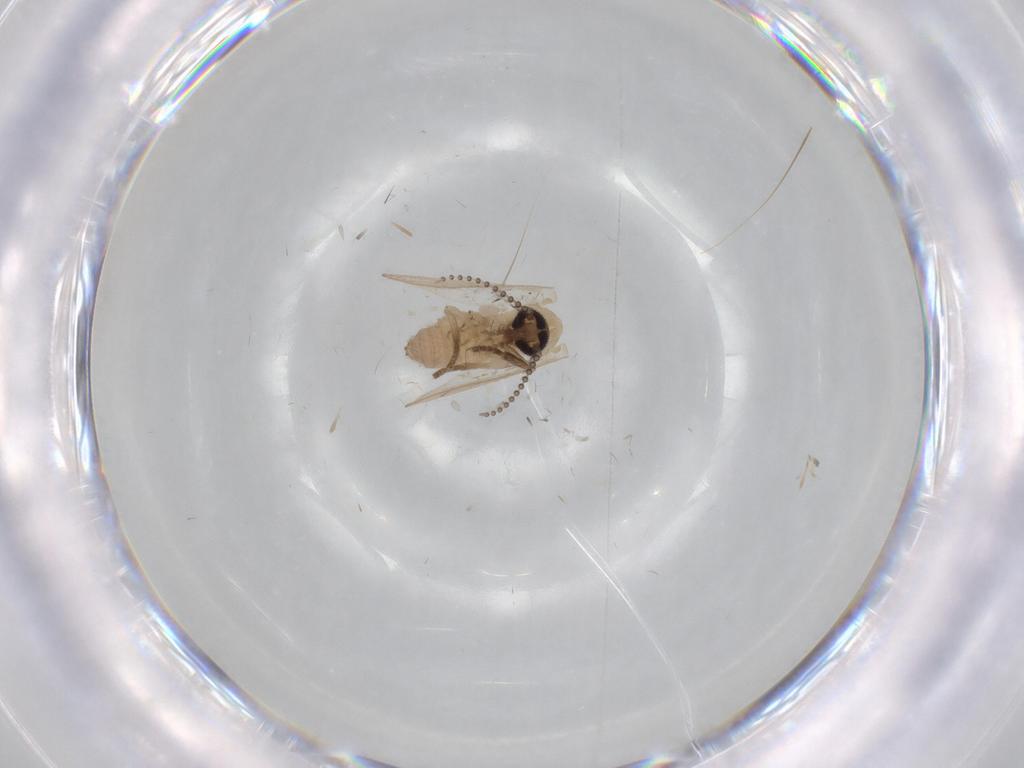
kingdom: Animalia
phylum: Arthropoda
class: Insecta
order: Diptera
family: Psychodidae
